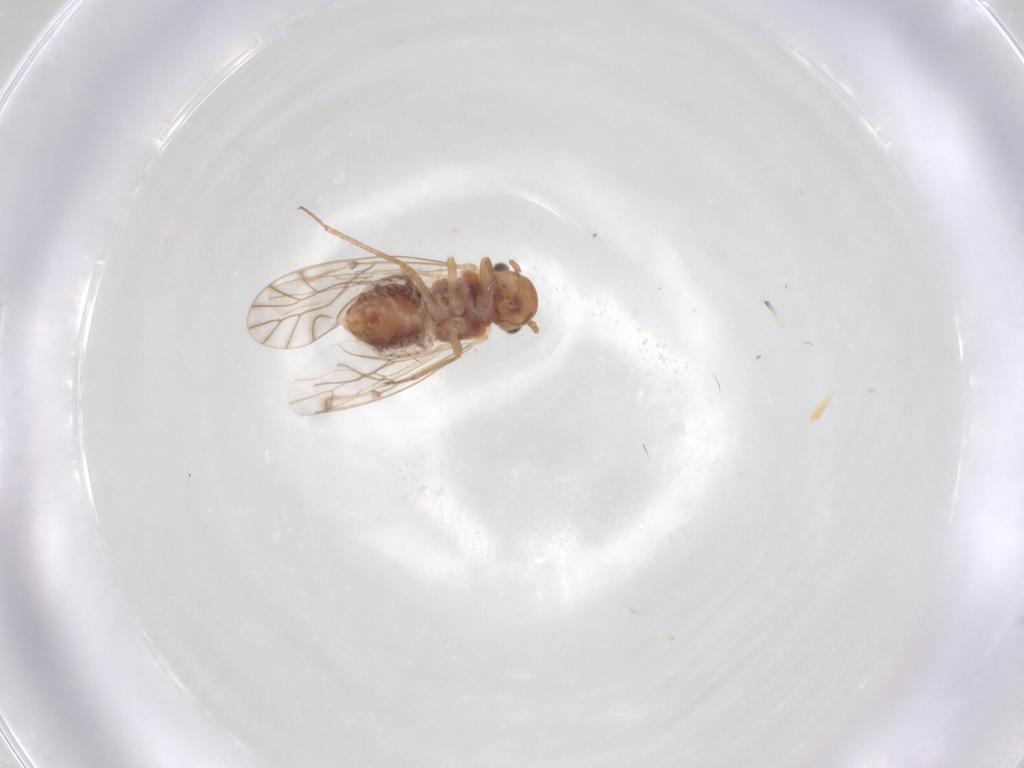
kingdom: Animalia
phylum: Arthropoda
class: Insecta
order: Psocodea
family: Lachesillidae
